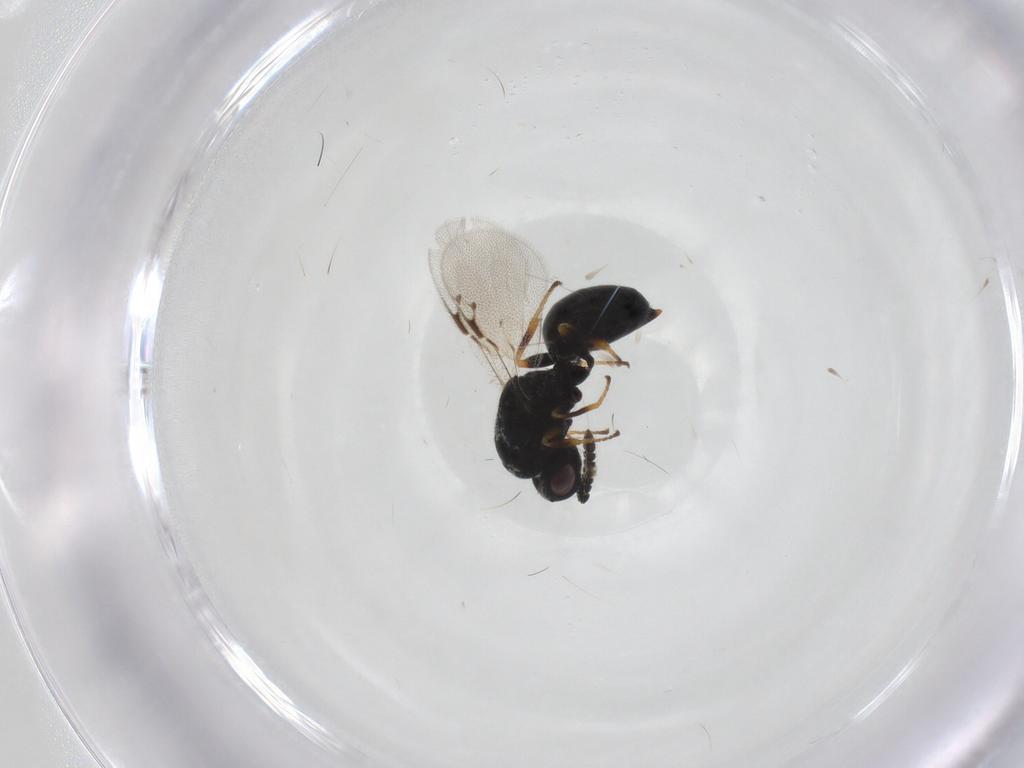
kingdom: Animalia
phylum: Arthropoda
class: Insecta
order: Hymenoptera
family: Eurytomidae
